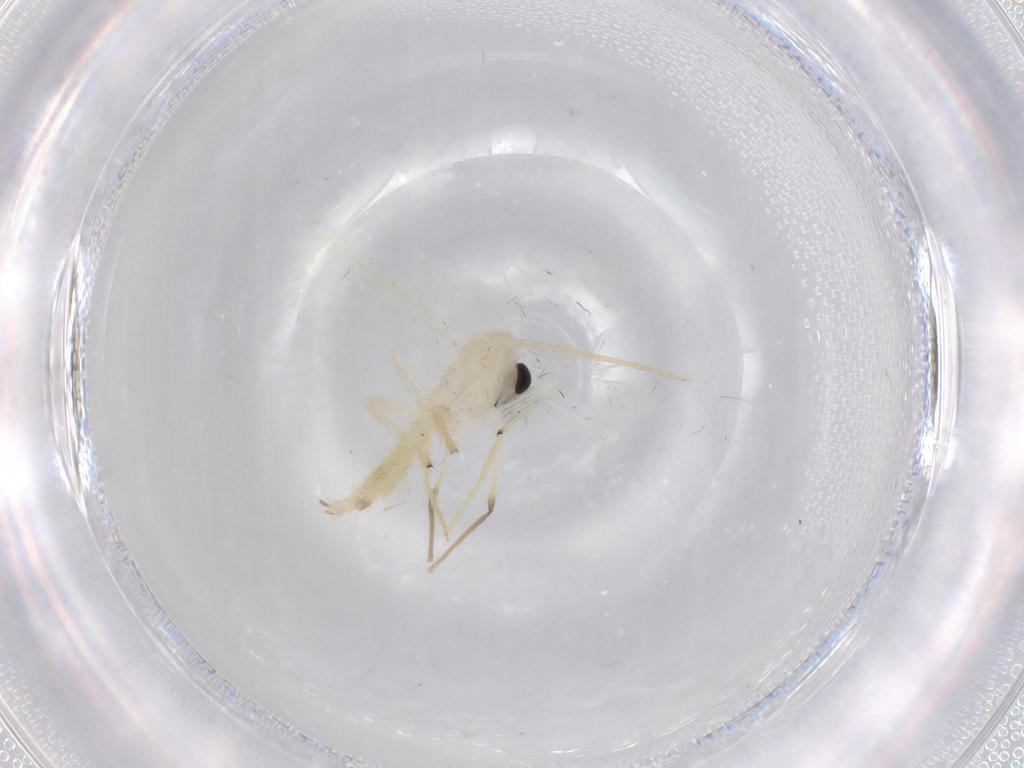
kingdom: Animalia
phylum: Arthropoda
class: Insecta
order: Diptera
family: Chironomidae
